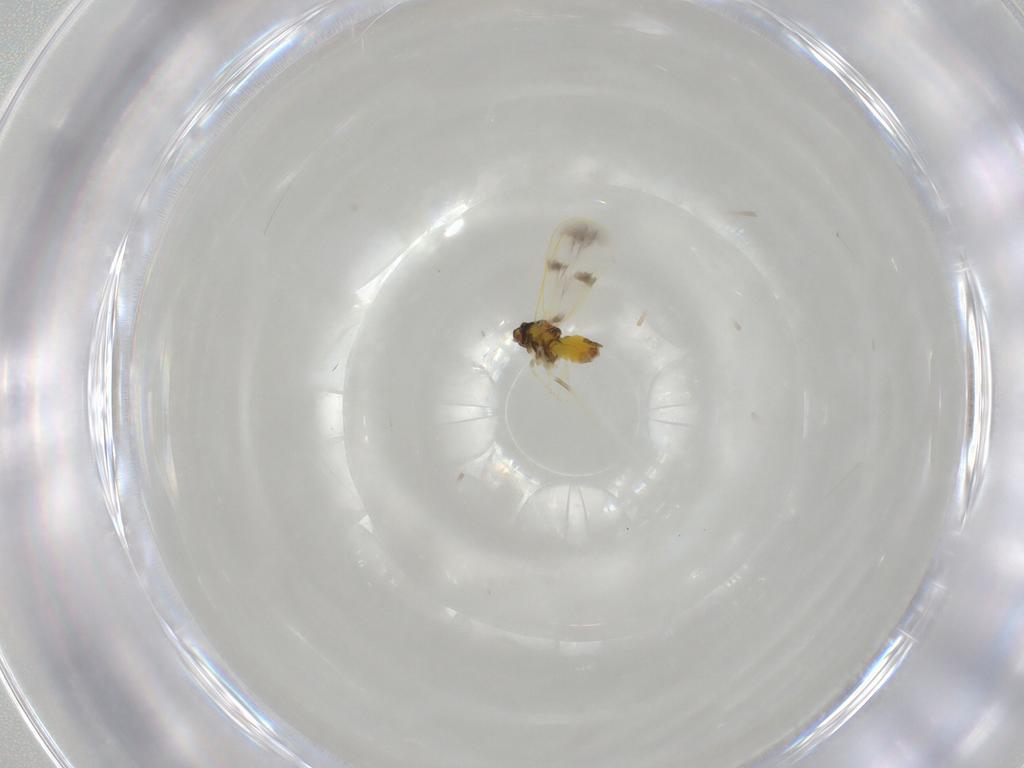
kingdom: Animalia
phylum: Arthropoda
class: Insecta
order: Hemiptera
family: Aleyrodidae
